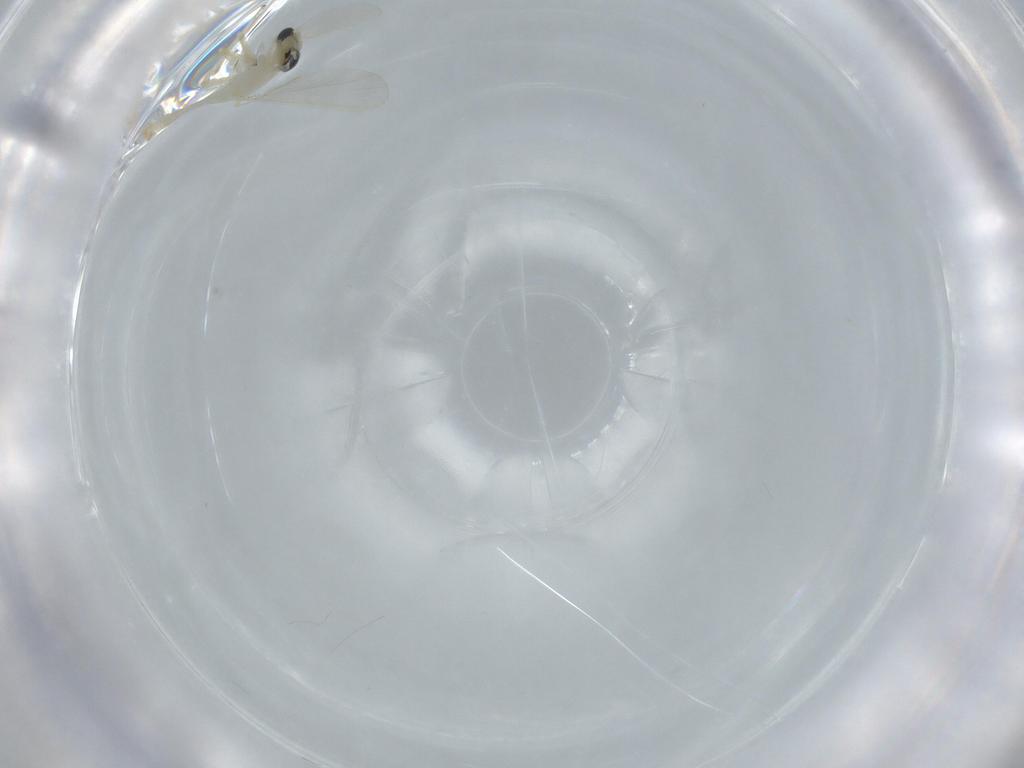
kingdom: Animalia
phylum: Arthropoda
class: Insecta
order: Diptera
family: Chironomidae
